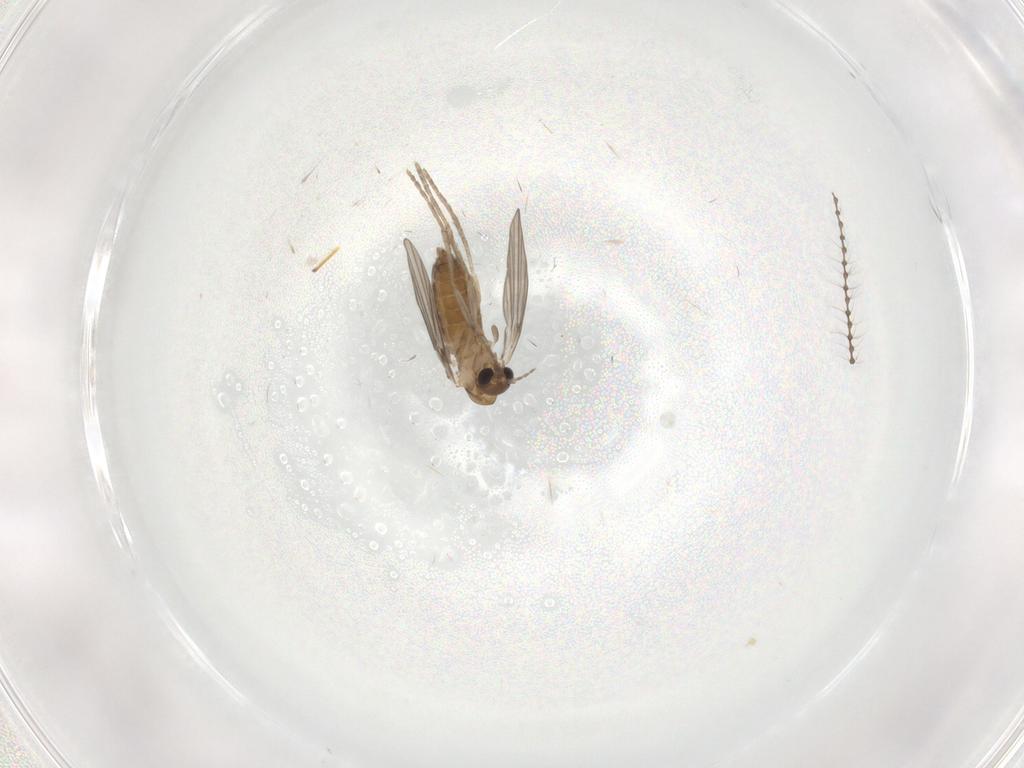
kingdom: Animalia
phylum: Arthropoda
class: Insecta
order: Diptera
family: Cecidomyiidae
